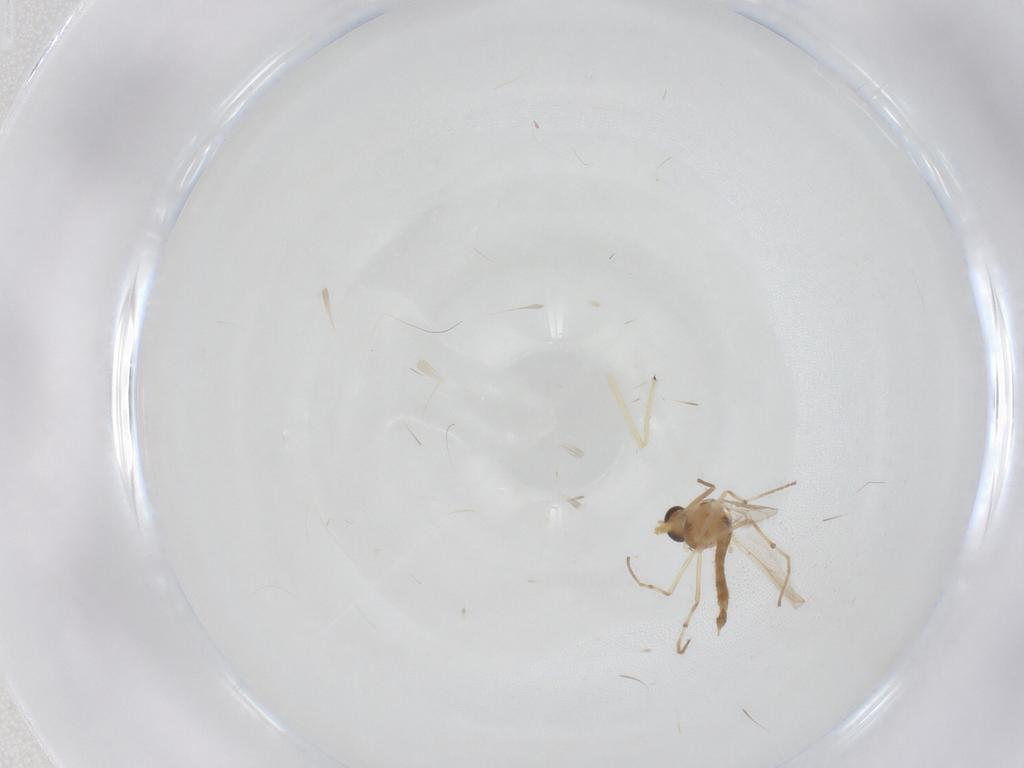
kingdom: Animalia
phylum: Arthropoda
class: Insecta
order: Diptera
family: Chironomidae
